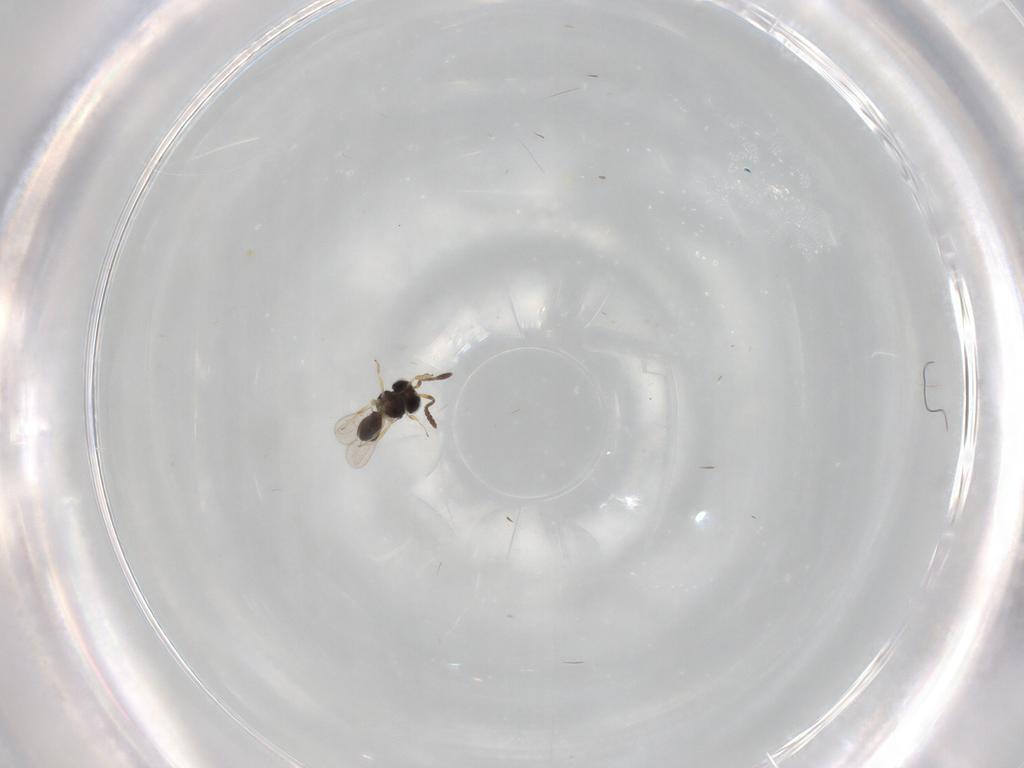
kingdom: Animalia
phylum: Arthropoda
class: Insecta
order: Hymenoptera
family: Scelionidae
